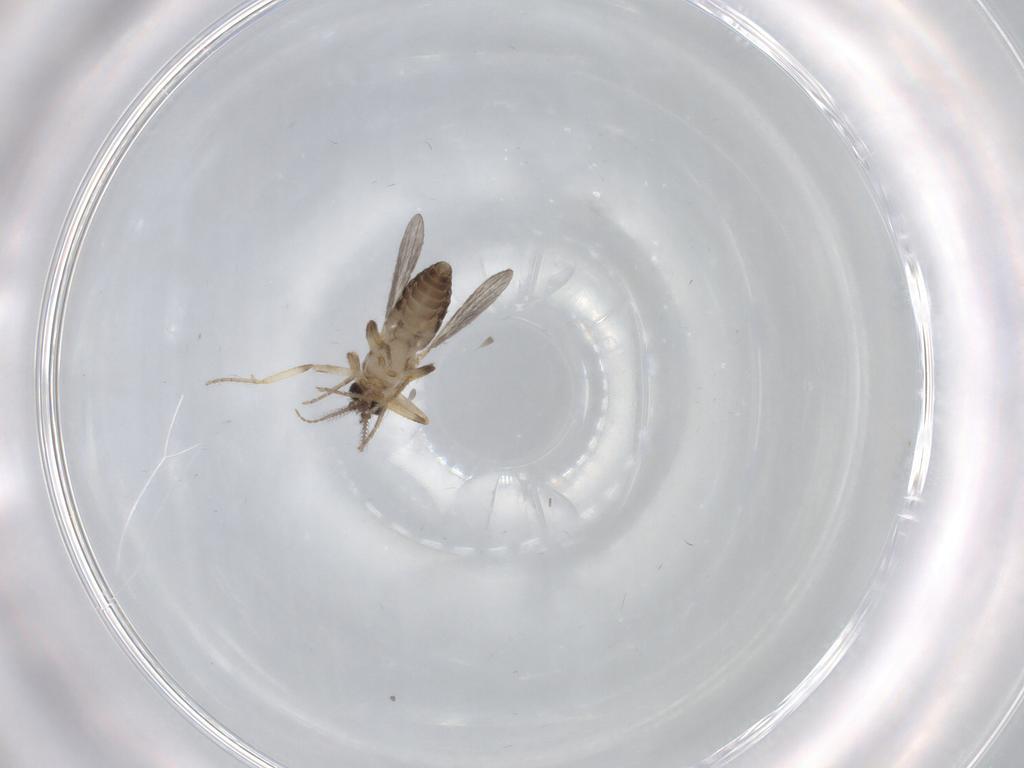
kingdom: Animalia
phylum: Arthropoda
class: Insecta
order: Diptera
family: Ceratopogonidae
